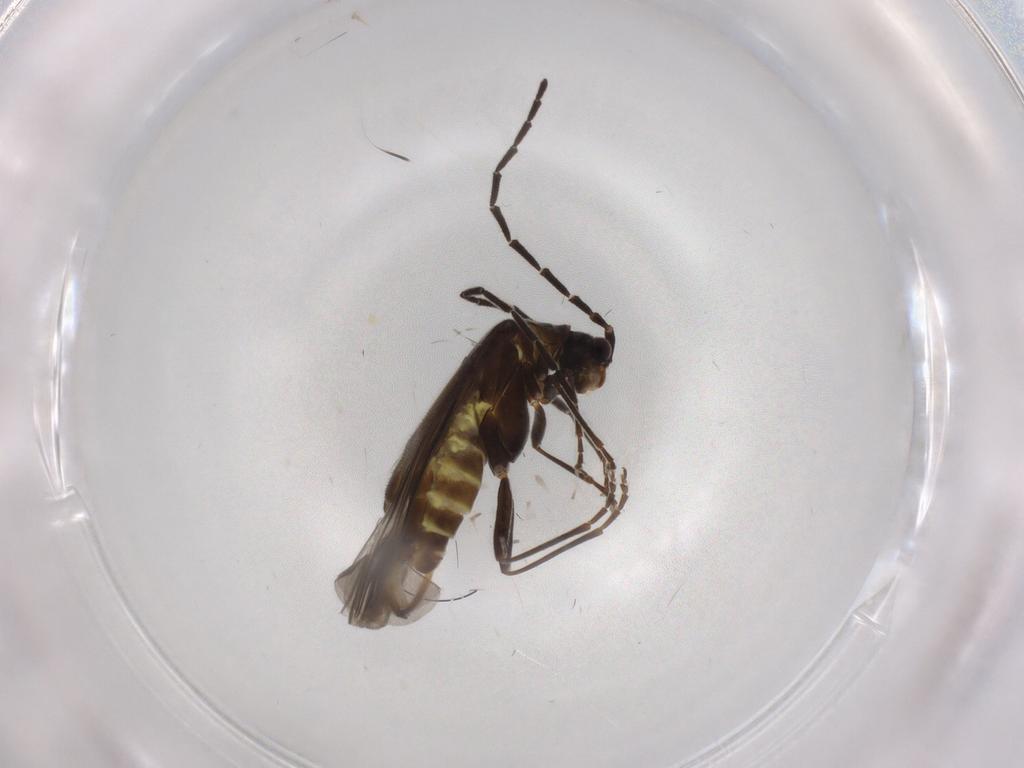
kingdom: Animalia
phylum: Arthropoda
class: Insecta
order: Coleoptera
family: Cantharidae
